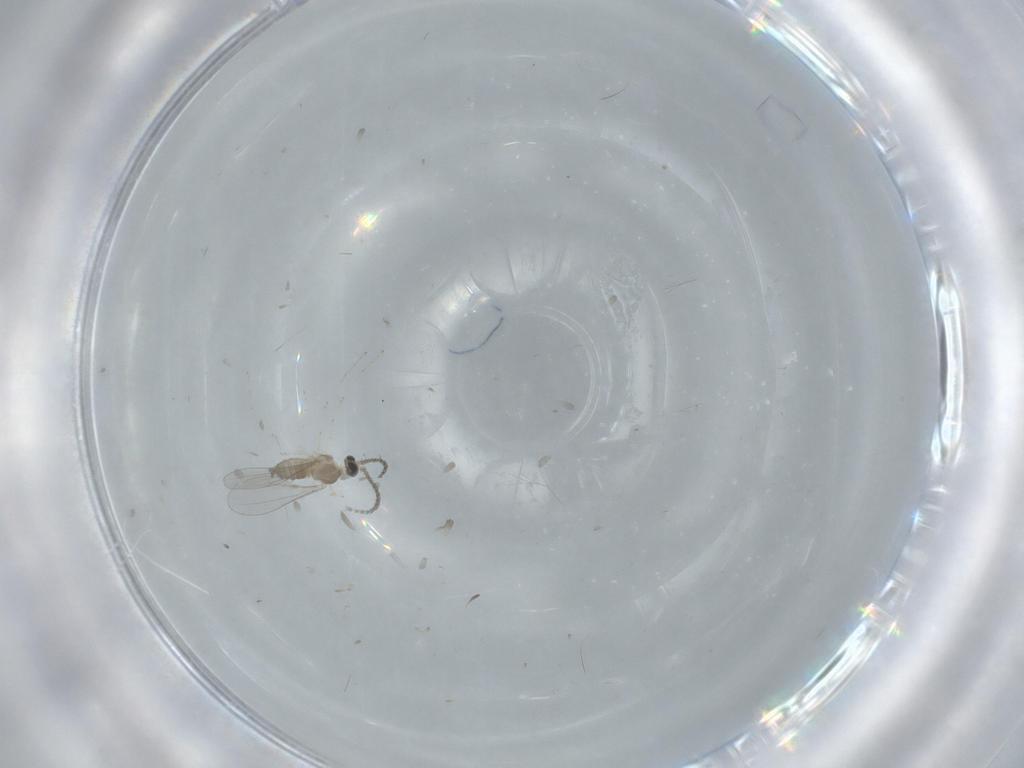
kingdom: Animalia
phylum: Arthropoda
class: Insecta
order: Diptera
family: Cecidomyiidae
